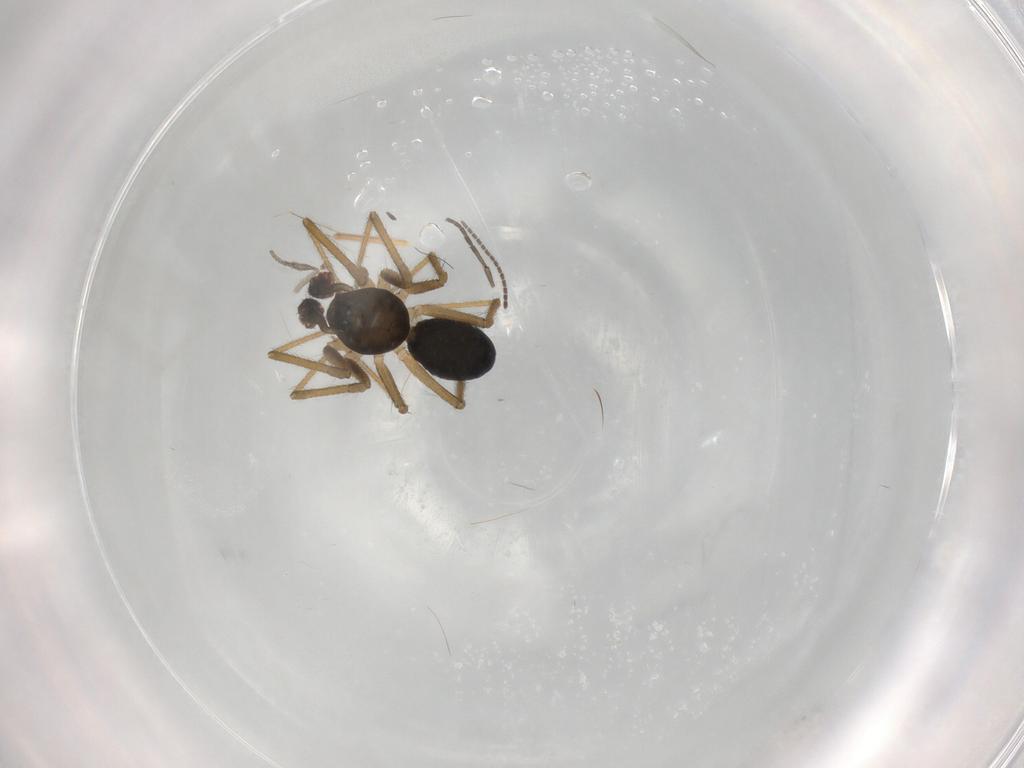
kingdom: Animalia
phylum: Arthropoda
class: Arachnida
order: Araneae
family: Linyphiidae
